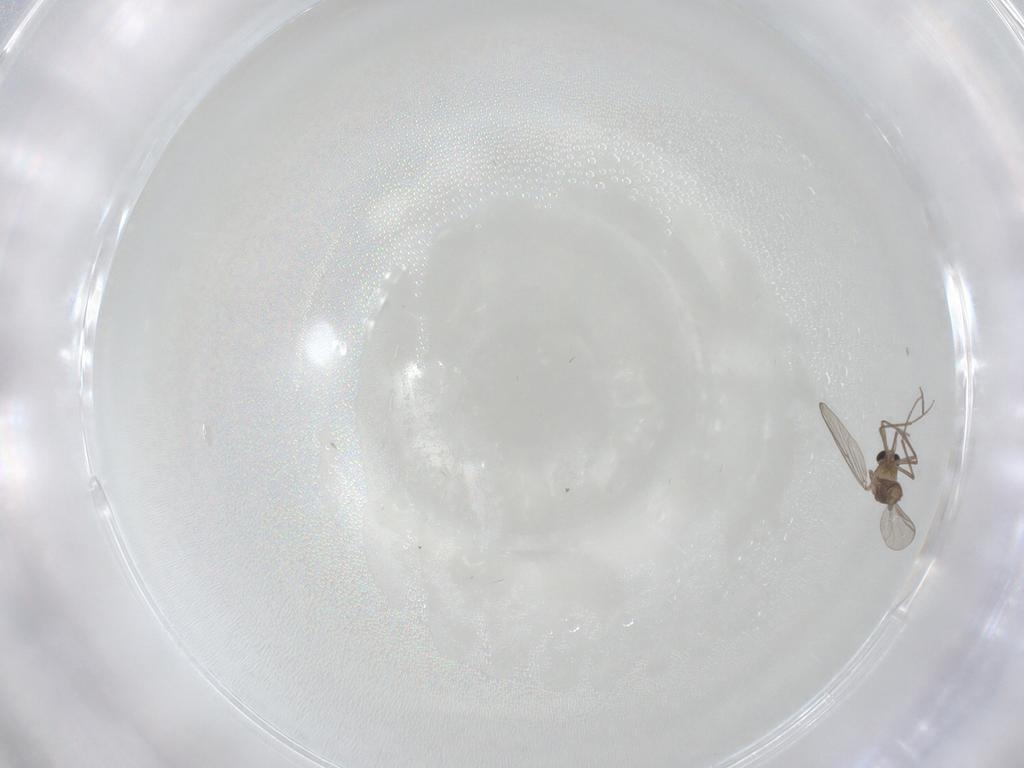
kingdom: Animalia
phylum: Arthropoda
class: Insecta
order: Diptera
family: Chironomidae
